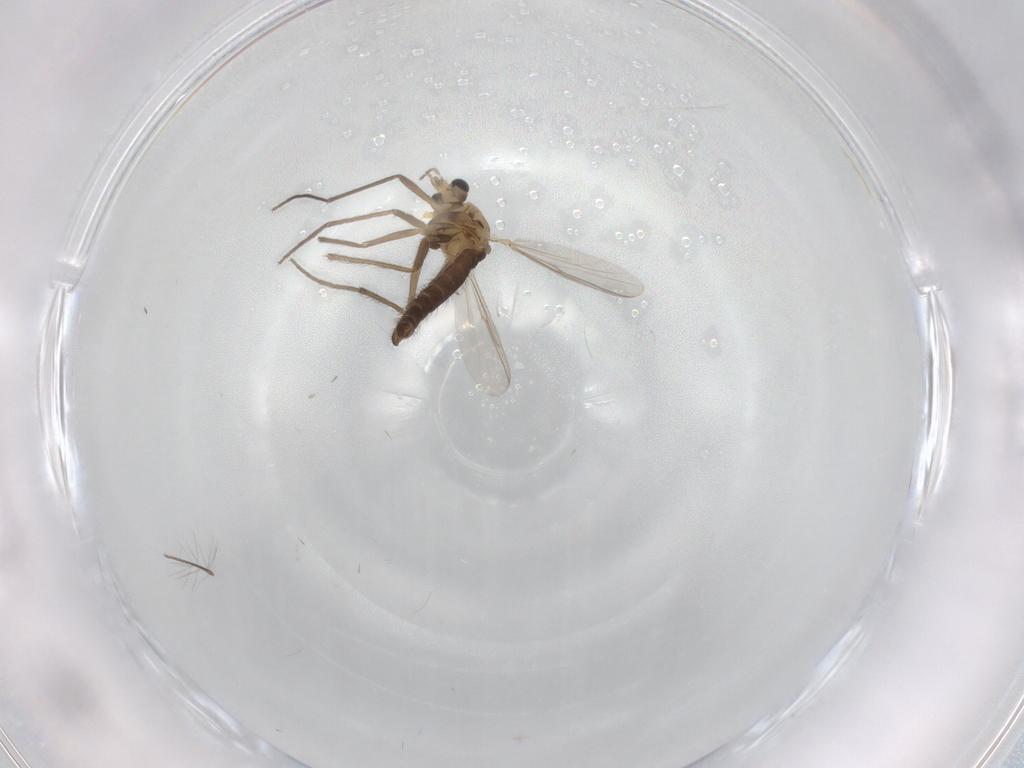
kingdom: Animalia
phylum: Arthropoda
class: Insecta
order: Diptera
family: Chironomidae
